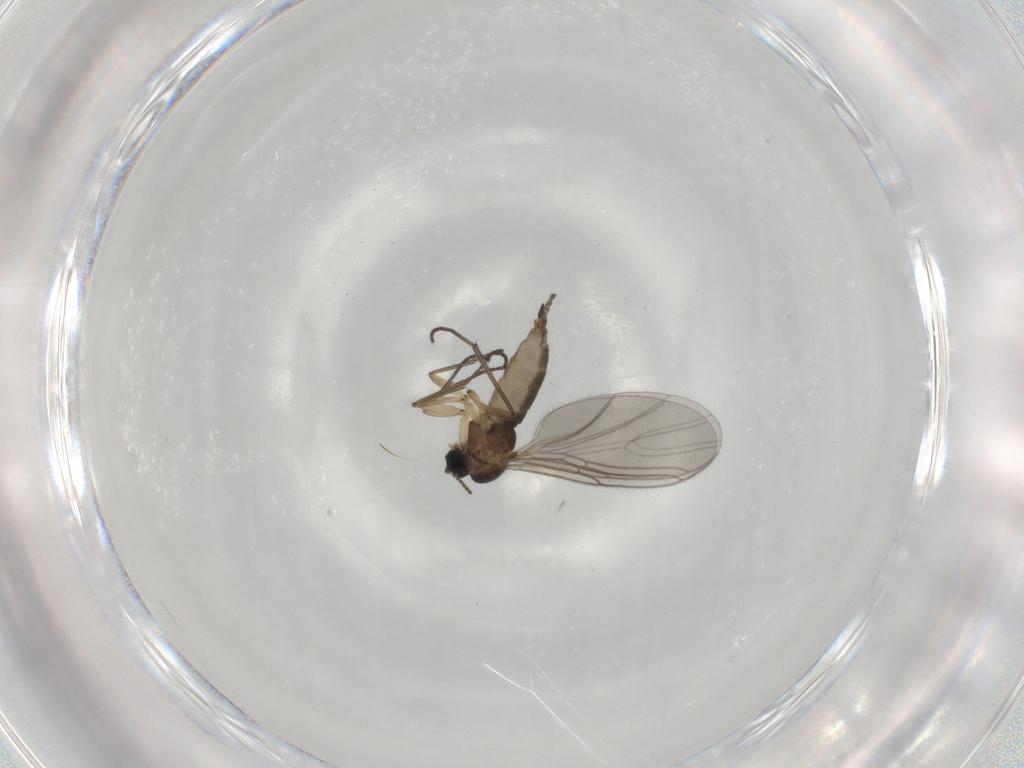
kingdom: Animalia
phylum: Arthropoda
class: Insecta
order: Diptera
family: Sciaridae
